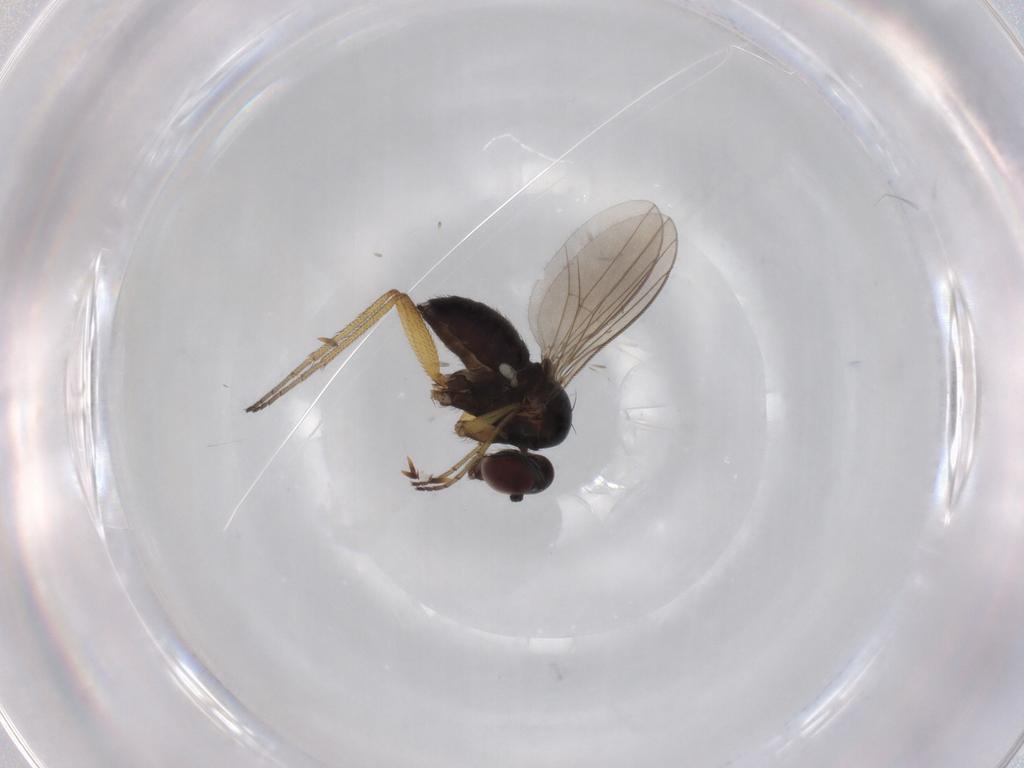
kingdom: Animalia
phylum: Arthropoda
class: Insecta
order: Diptera
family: Dolichopodidae
